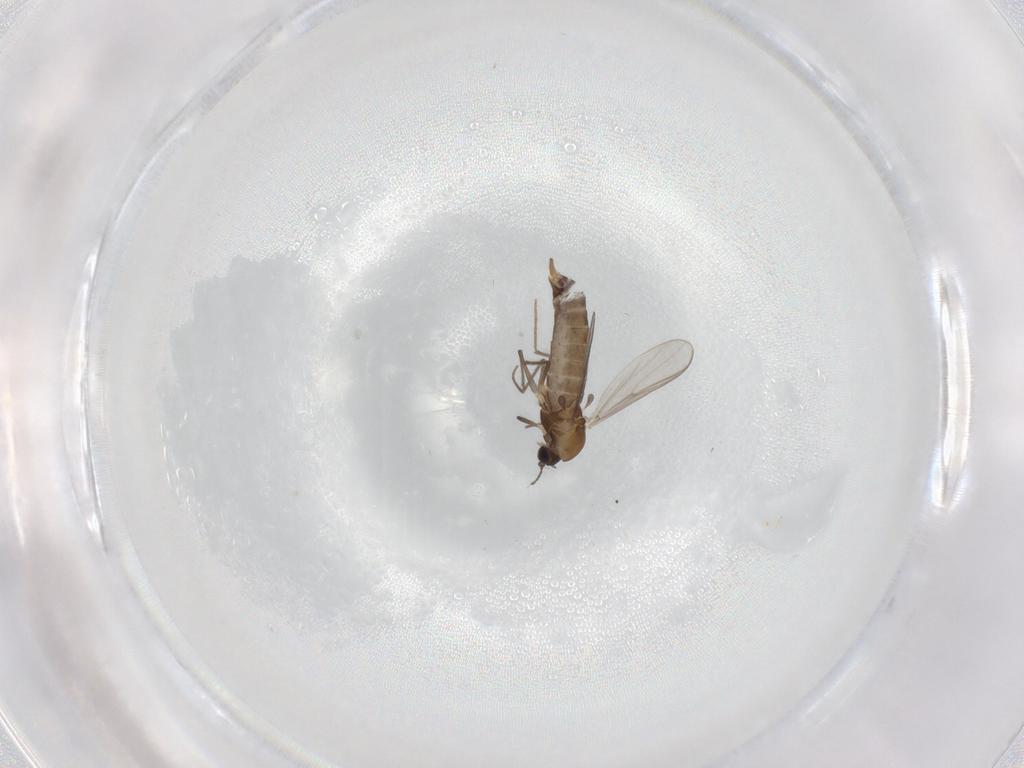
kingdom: Animalia
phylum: Arthropoda
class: Insecta
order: Diptera
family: Chironomidae
